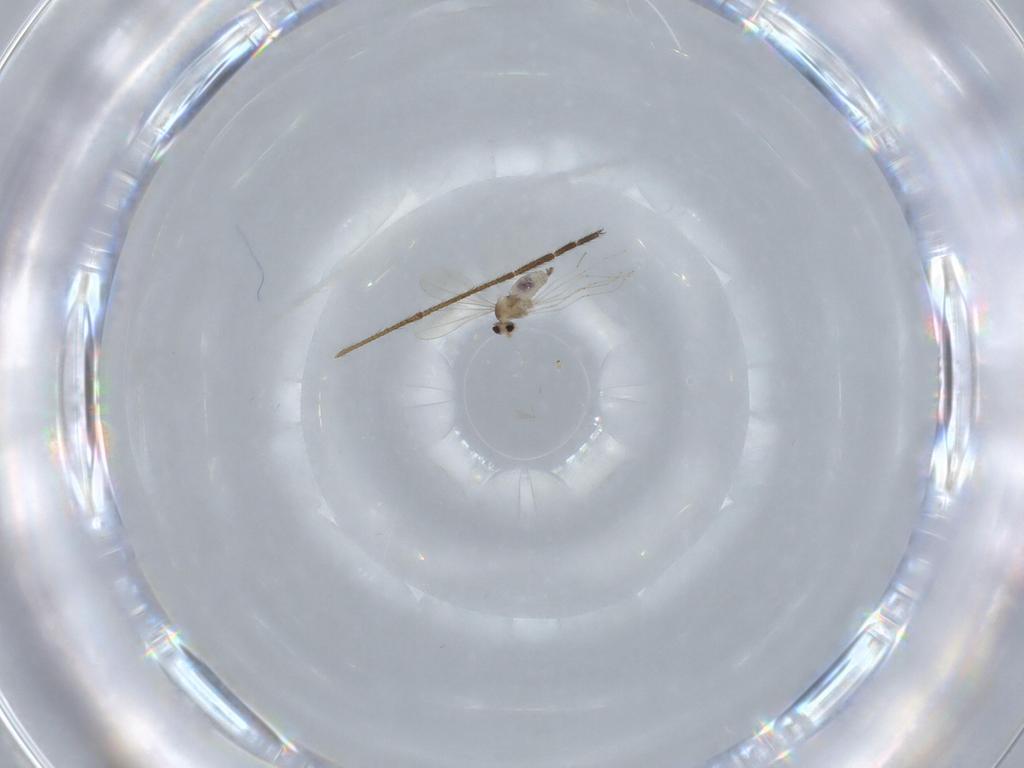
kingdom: Animalia
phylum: Arthropoda
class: Insecta
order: Diptera
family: Cecidomyiidae
